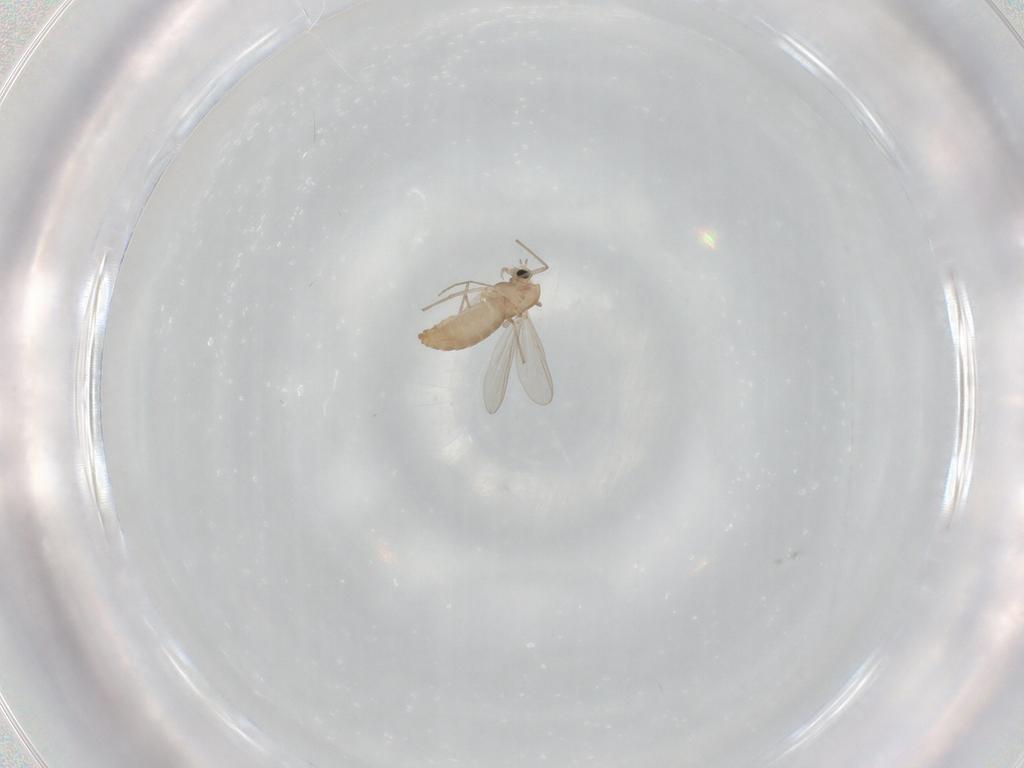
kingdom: Animalia
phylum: Arthropoda
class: Insecta
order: Diptera
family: Chironomidae
